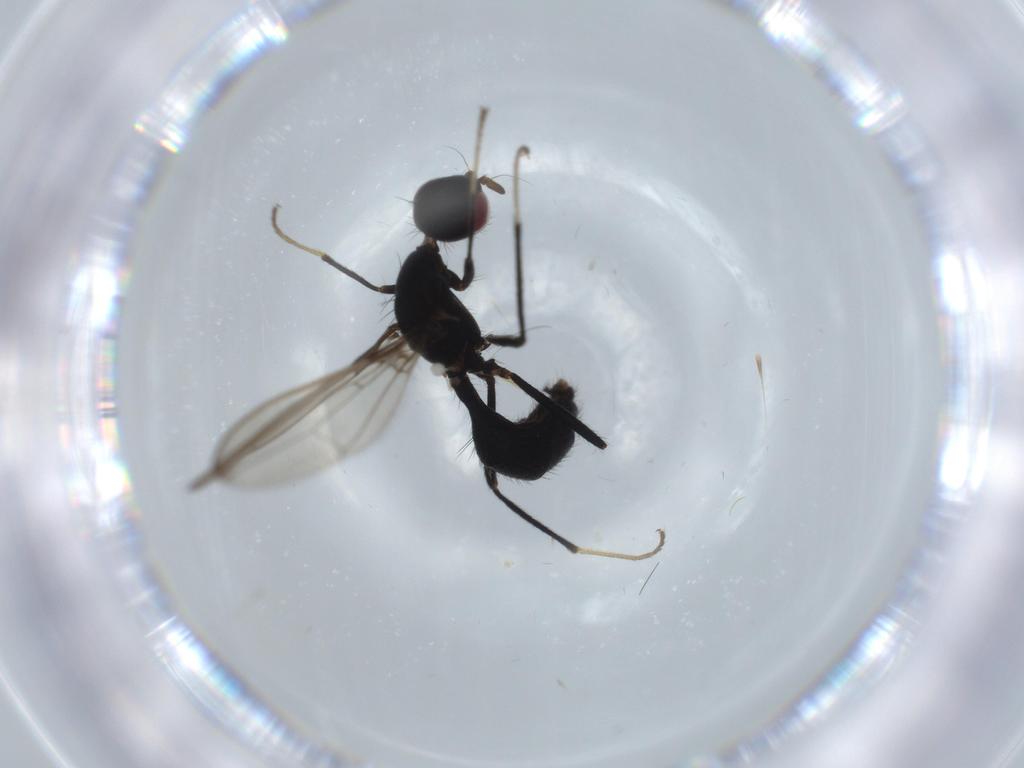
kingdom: Animalia
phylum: Arthropoda
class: Insecta
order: Diptera
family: Richardiidae
